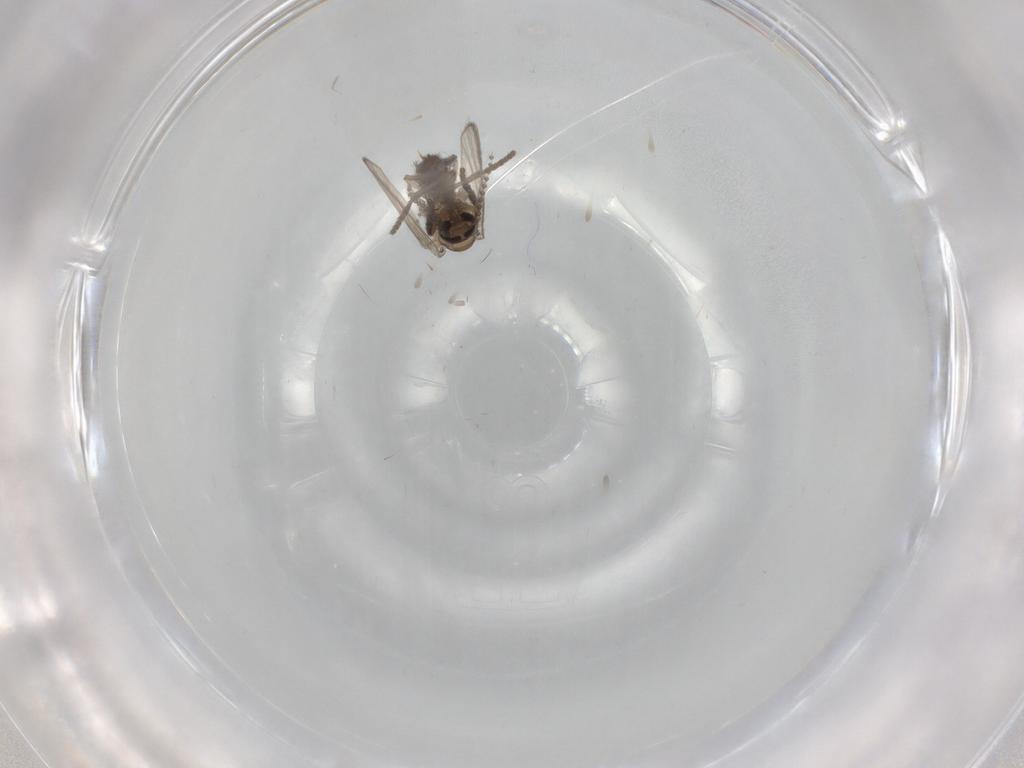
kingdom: Animalia
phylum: Arthropoda
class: Insecta
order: Diptera
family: Psychodidae
